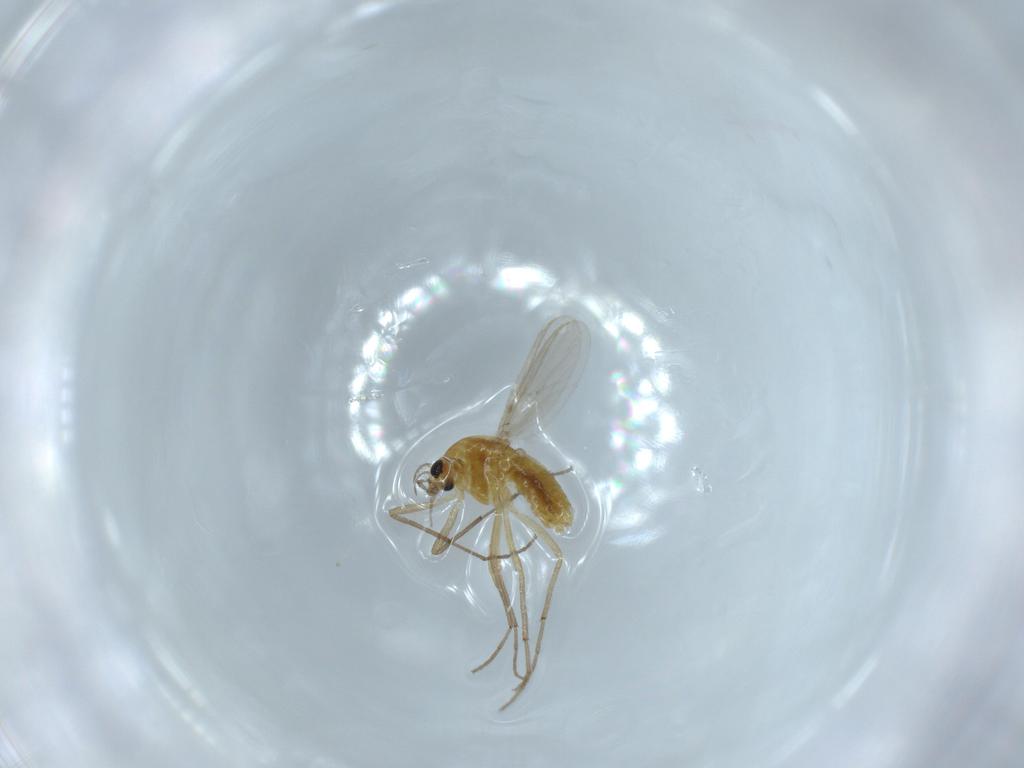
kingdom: Animalia
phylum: Arthropoda
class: Insecta
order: Diptera
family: Chironomidae
